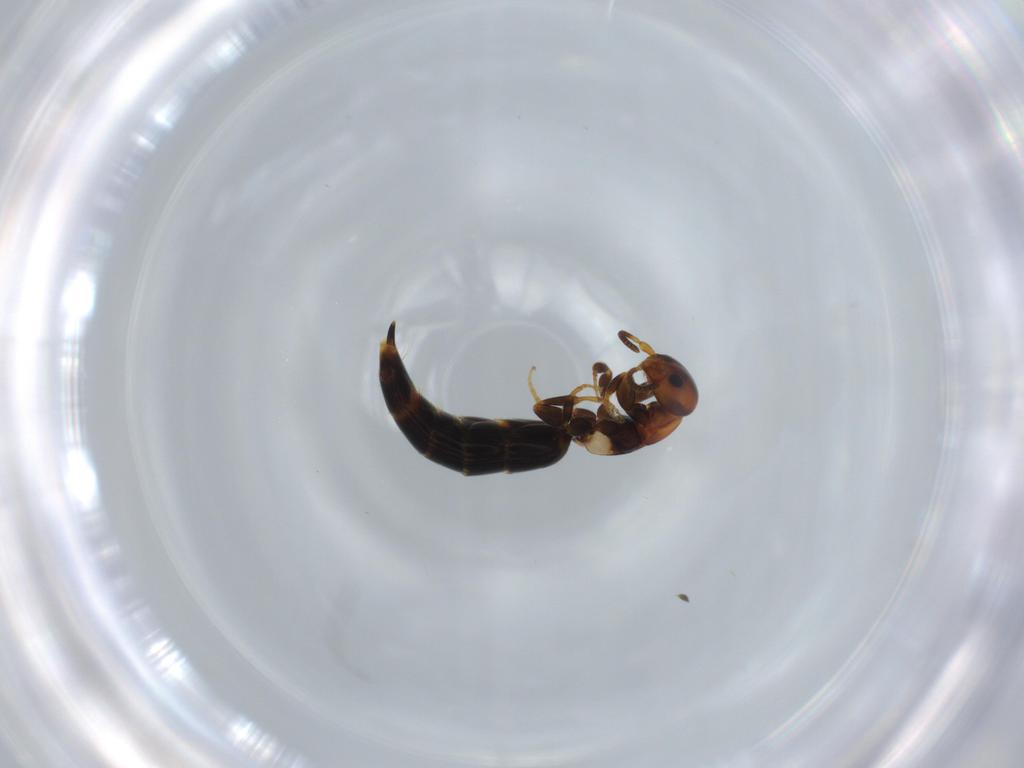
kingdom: Animalia
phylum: Arthropoda
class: Insecta
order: Hymenoptera
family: Bethylidae
